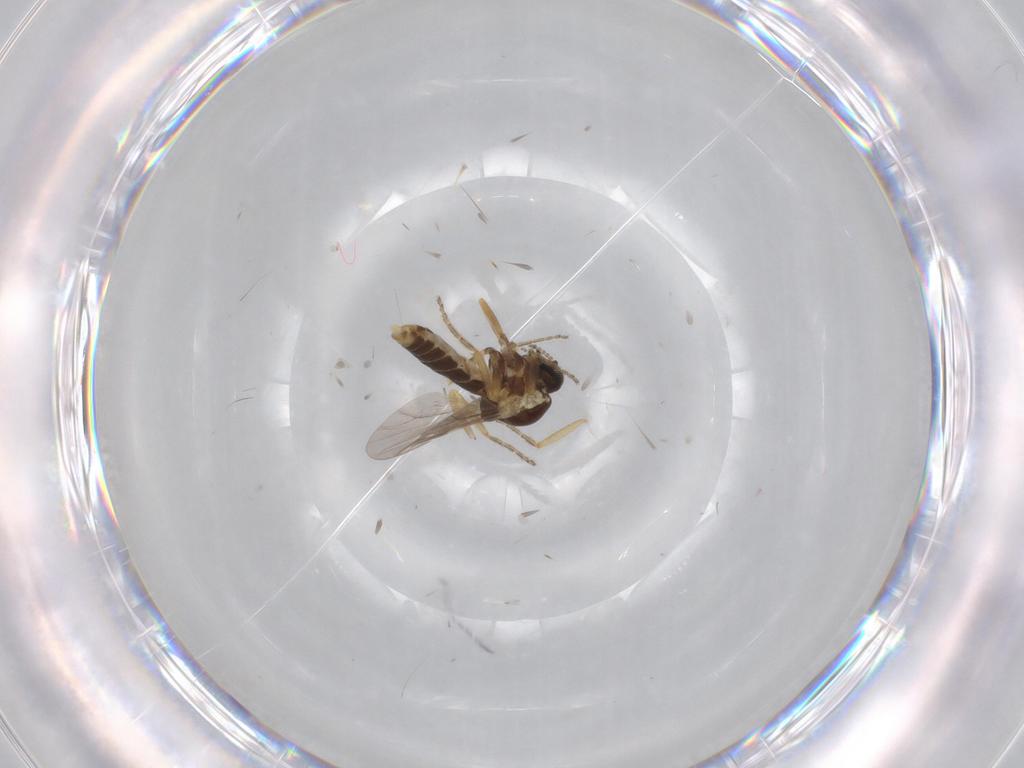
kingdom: Animalia
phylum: Arthropoda
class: Insecta
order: Diptera
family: Ceratopogonidae
